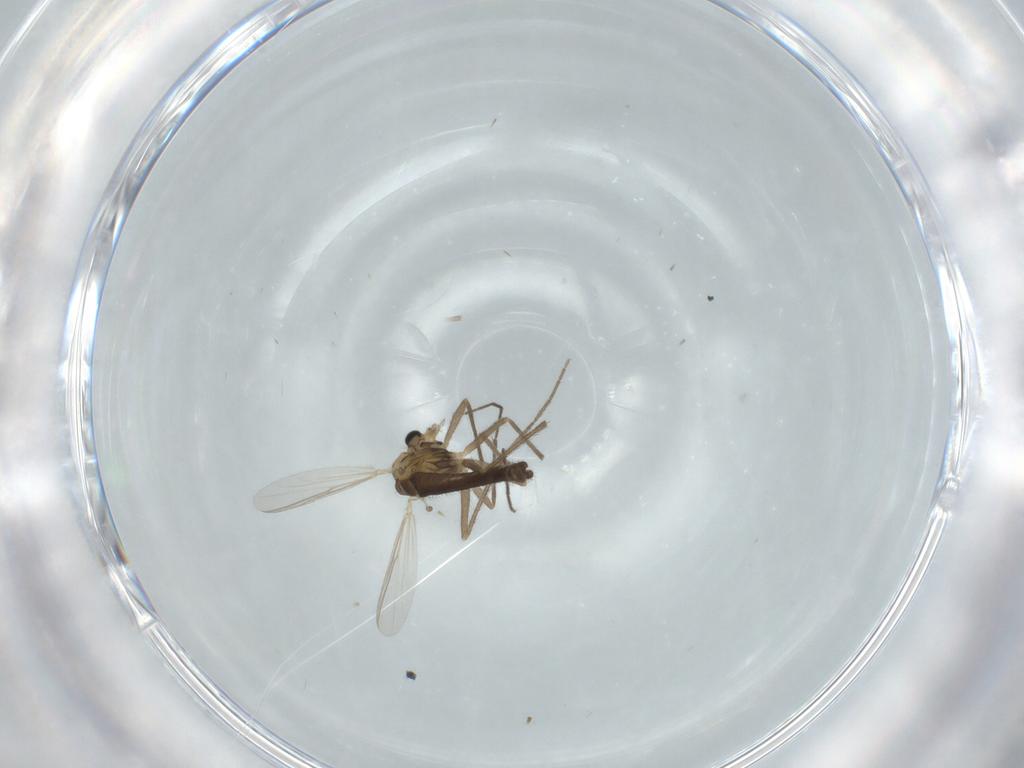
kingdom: Animalia
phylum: Arthropoda
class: Insecta
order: Diptera
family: Chironomidae
